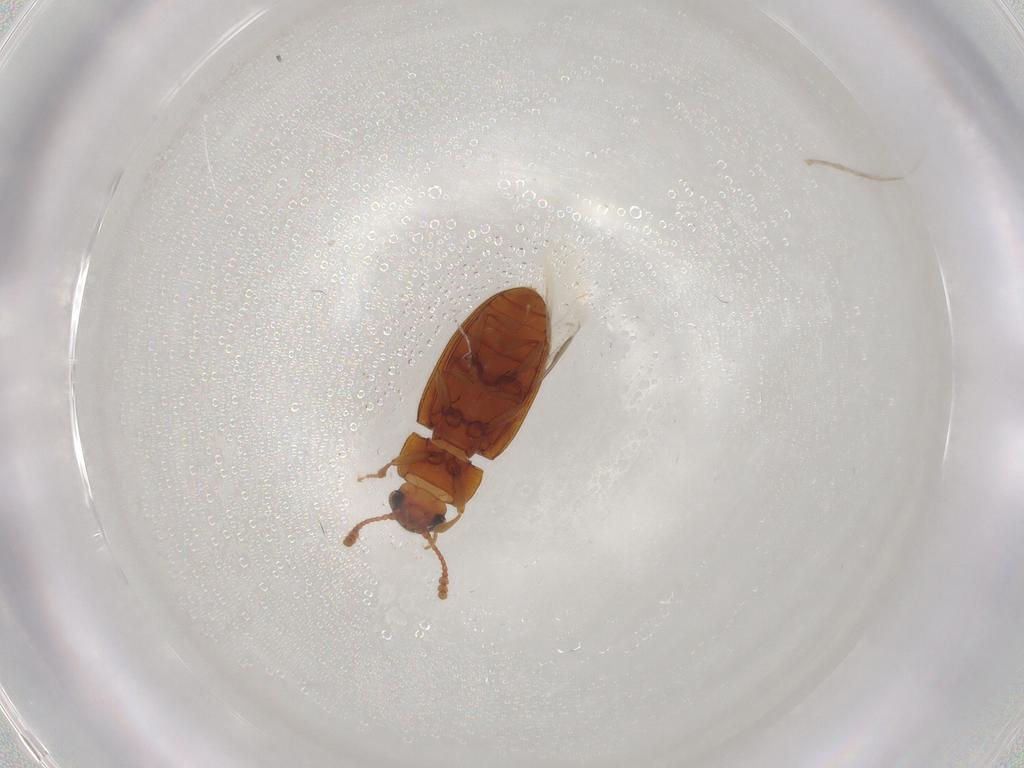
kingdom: Animalia
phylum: Arthropoda
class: Insecta
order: Coleoptera
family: Erotylidae
